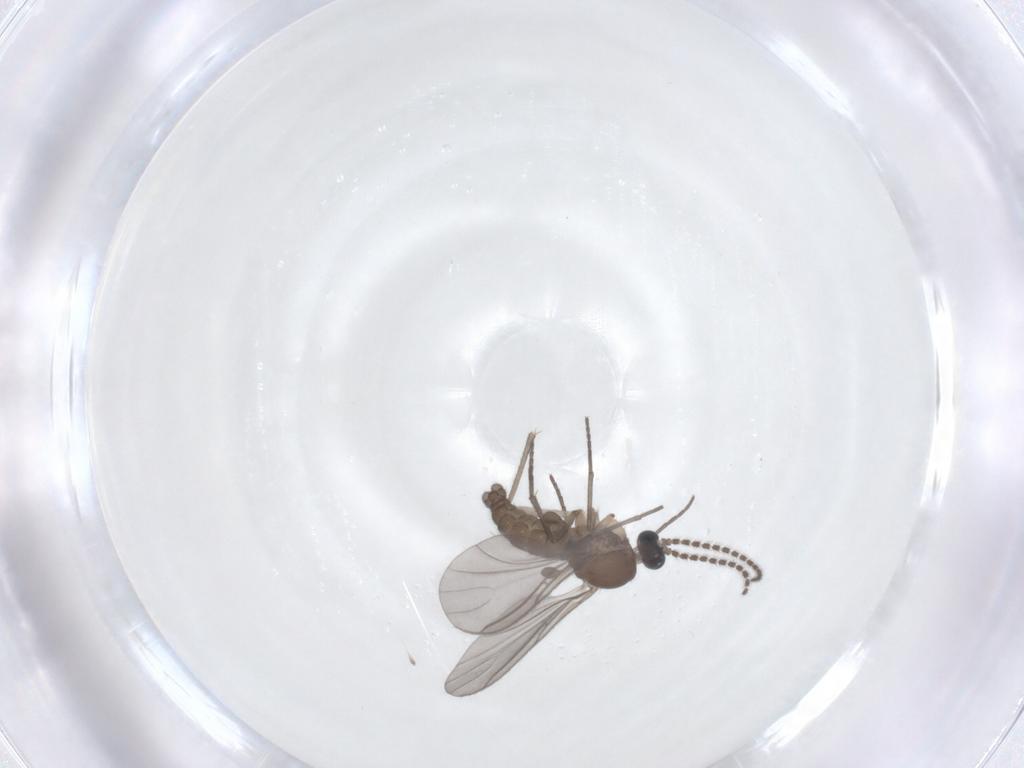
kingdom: Animalia
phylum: Arthropoda
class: Insecta
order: Diptera
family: Sciaridae
